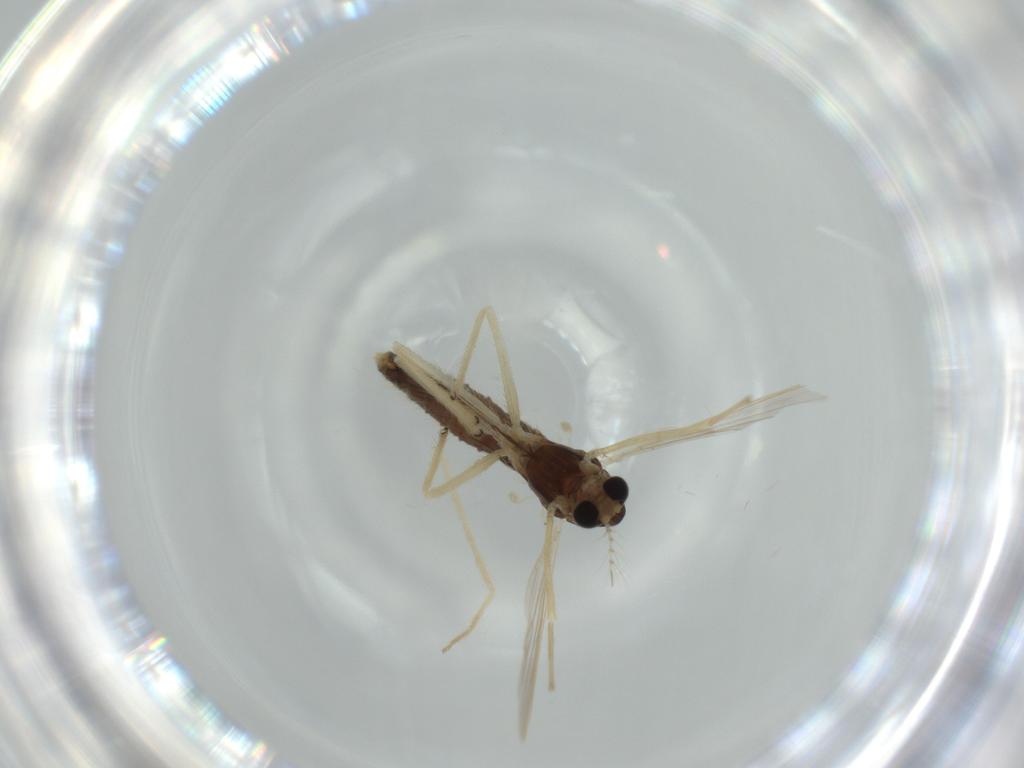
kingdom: Animalia
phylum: Arthropoda
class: Insecta
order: Diptera
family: Chironomidae
